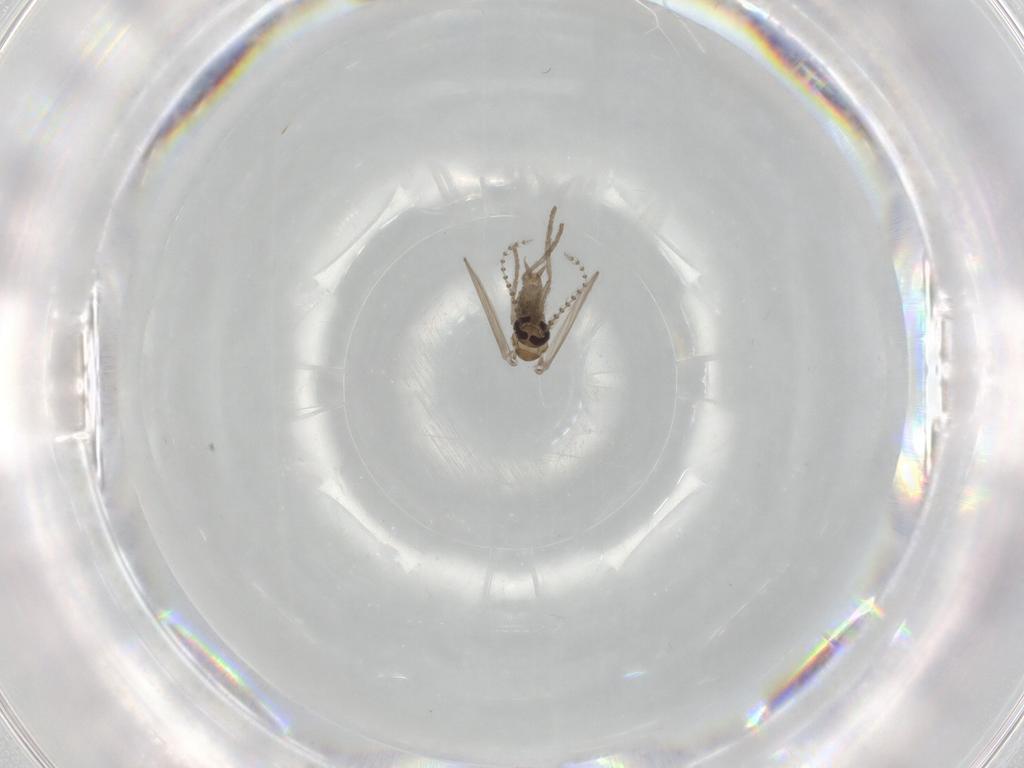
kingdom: Animalia
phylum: Arthropoda
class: Insecta
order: Diptera
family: Psychodidae
